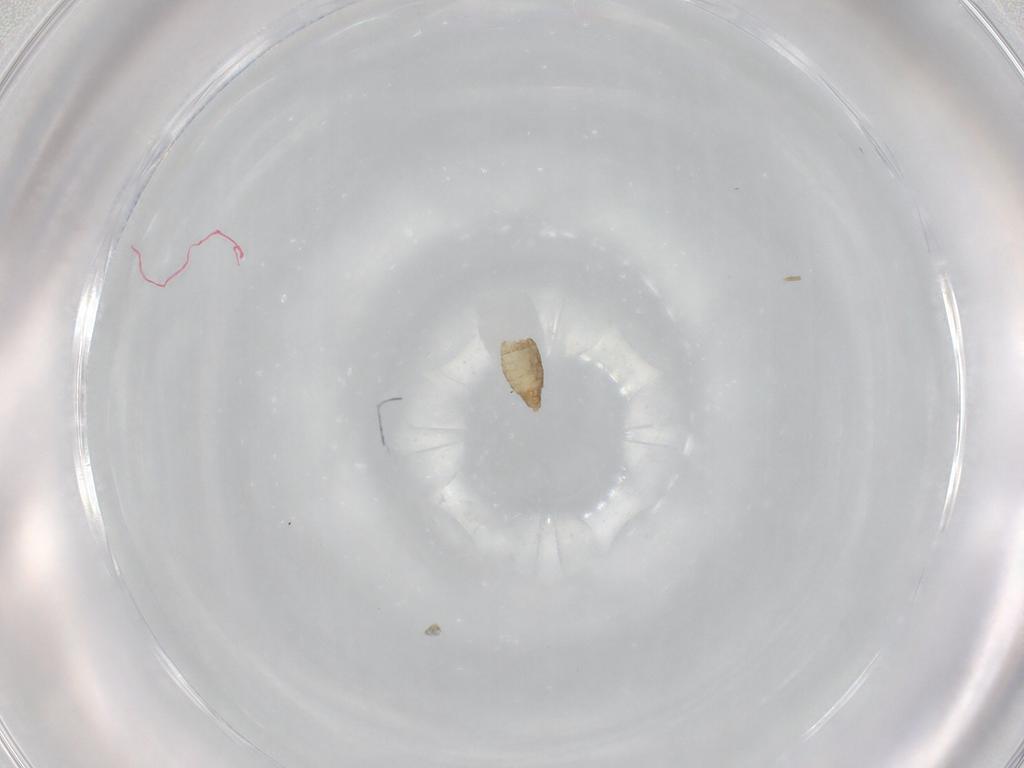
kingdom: Animalia
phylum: Arthropoda
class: Insecta
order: Diptera
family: Chironomidae
